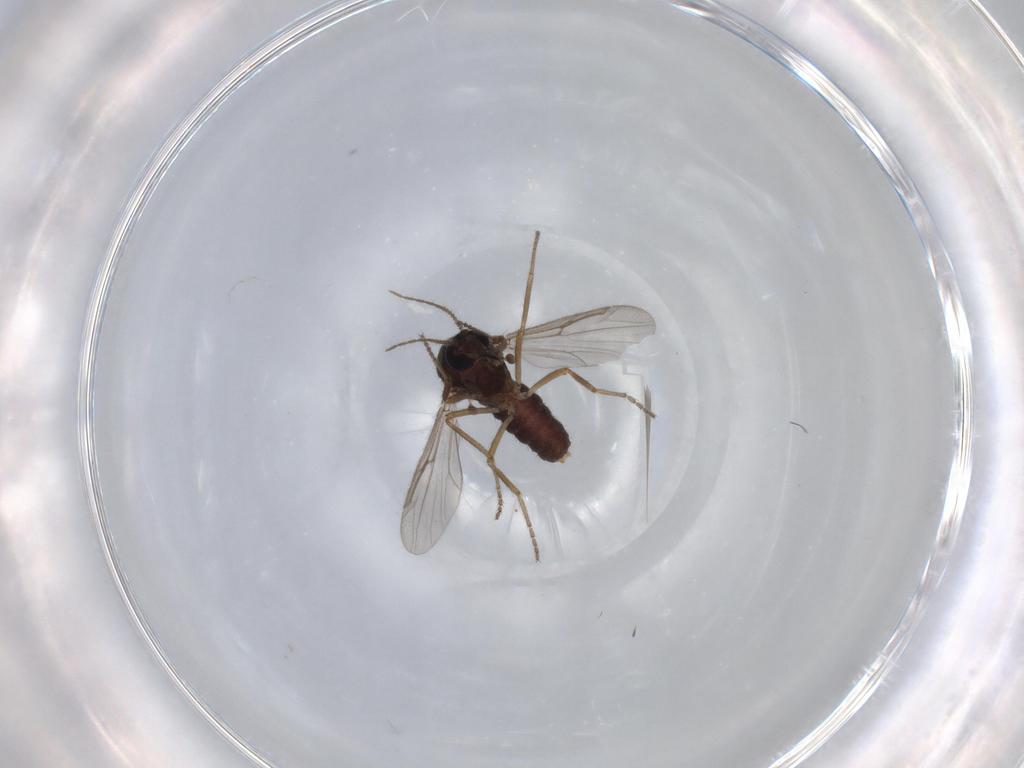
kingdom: Animalia
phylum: Arthropoda
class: Insecta
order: Diptera
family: Ceratopogonidae
